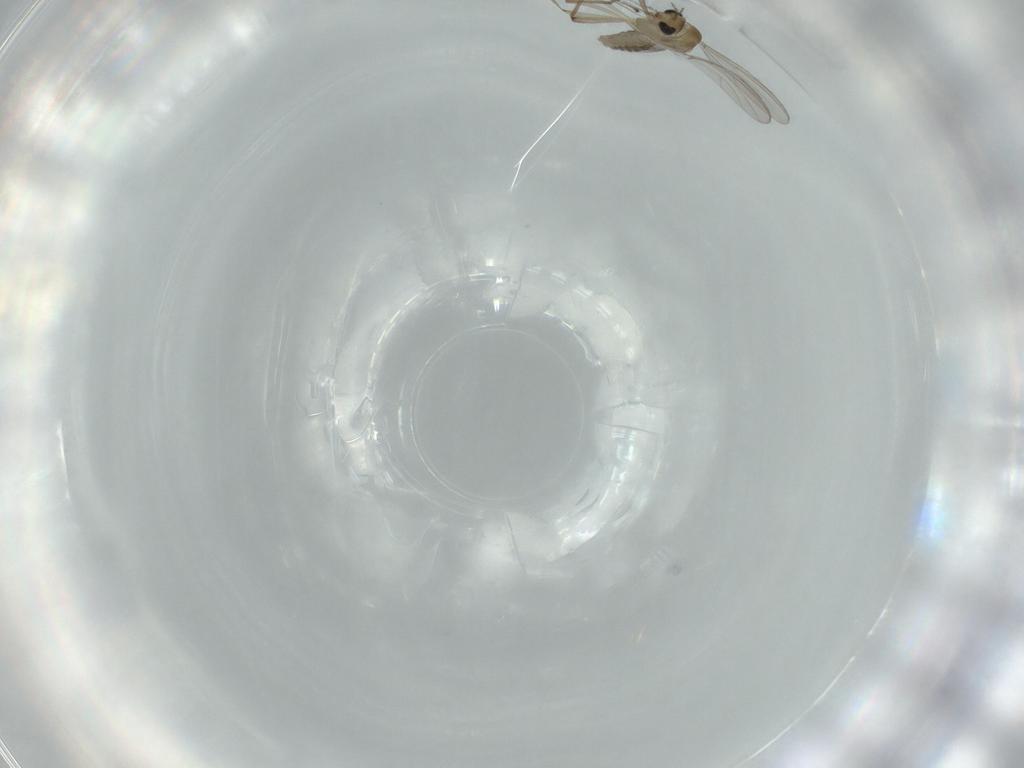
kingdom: Animalia
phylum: Arthropoda
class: Insecta
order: Diptera
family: Chironomidae
